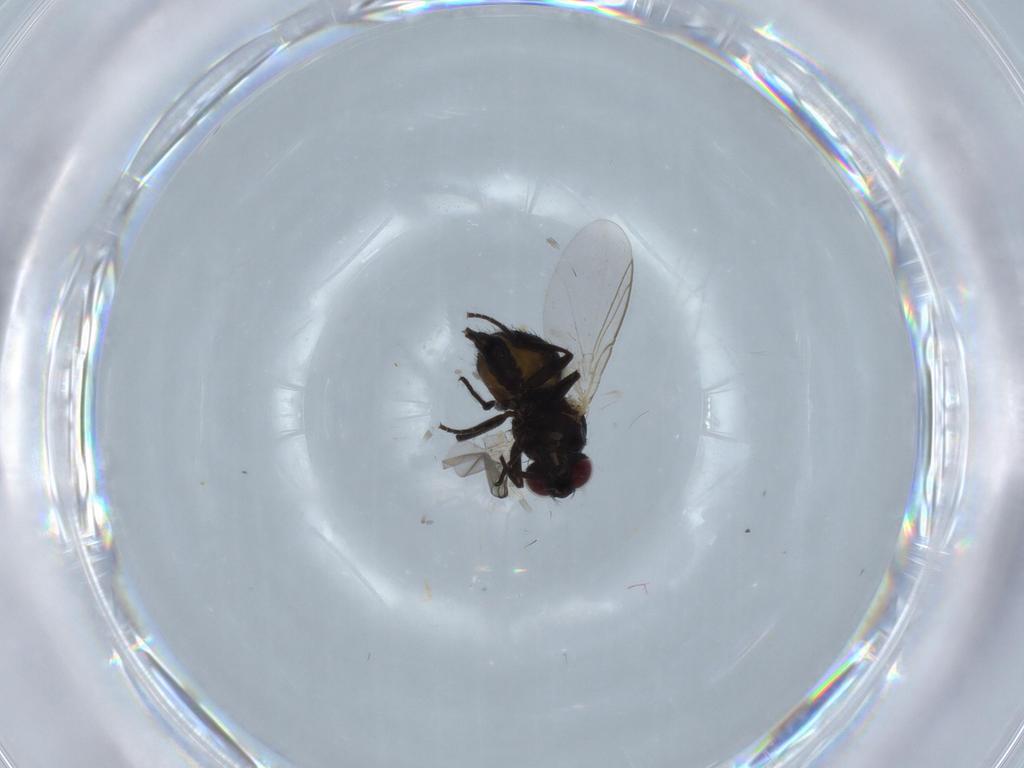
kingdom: Animalia
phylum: Arthropoda
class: Insecta
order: Diptera
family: Ceratopogonidae
